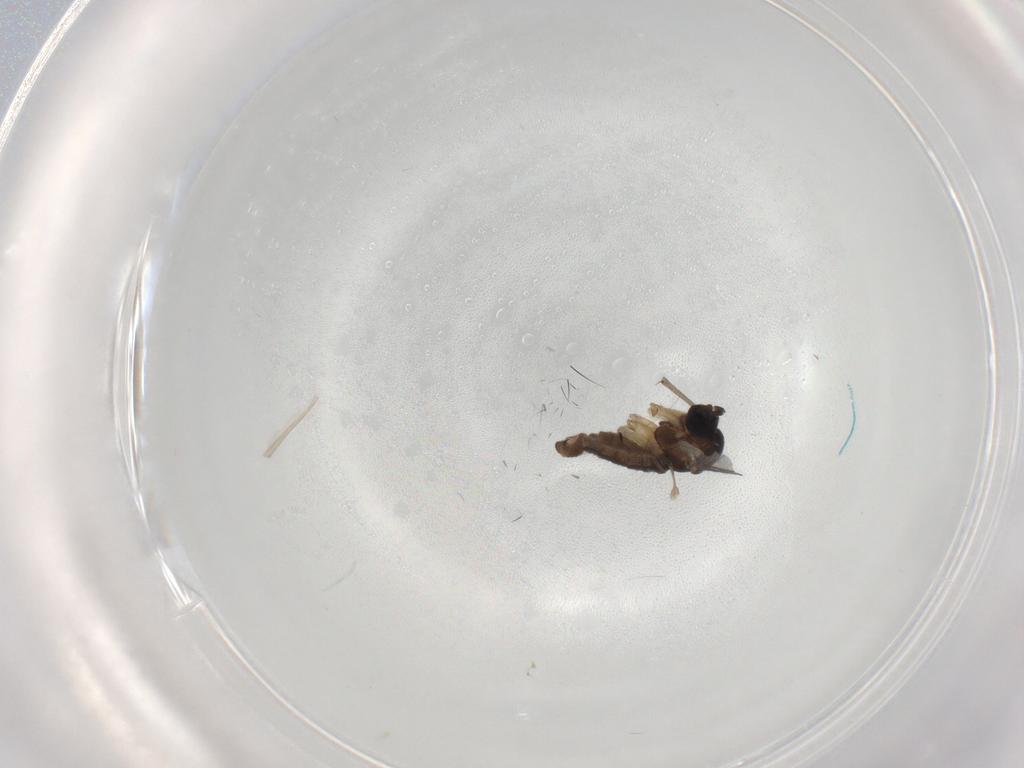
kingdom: Animalia
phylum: Arthropoda
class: Insecta
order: Diptera
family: Sciaridae
